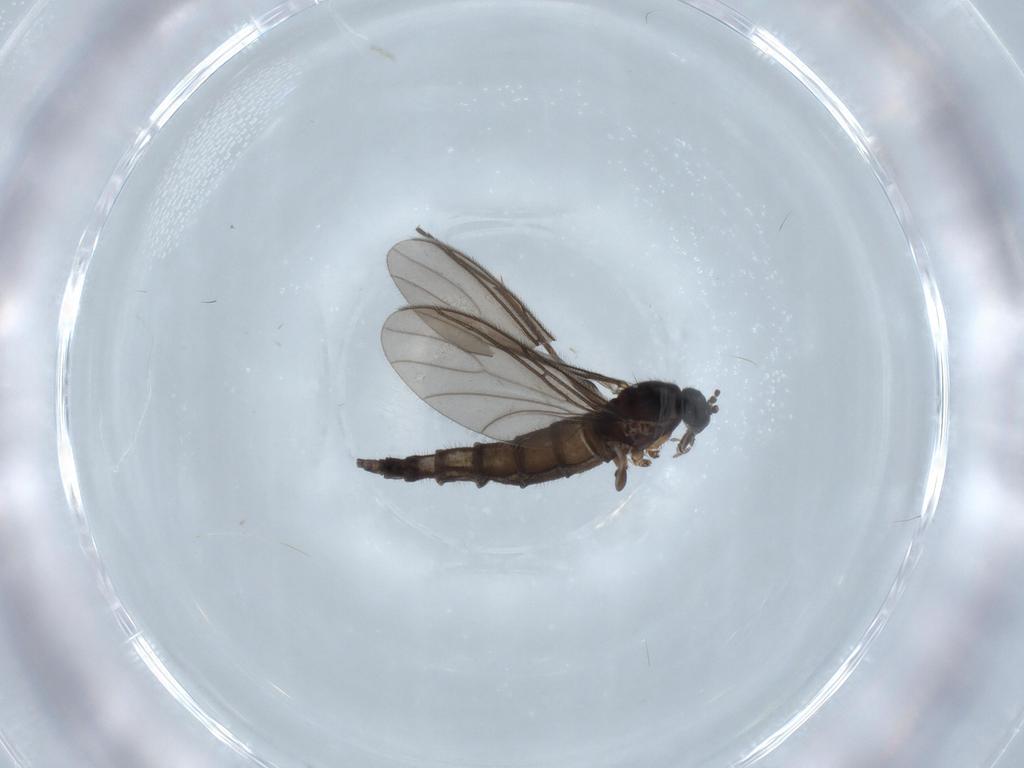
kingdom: Animalia
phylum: Arthropoda
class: Insecta
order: Diptera
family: Sciaridae
